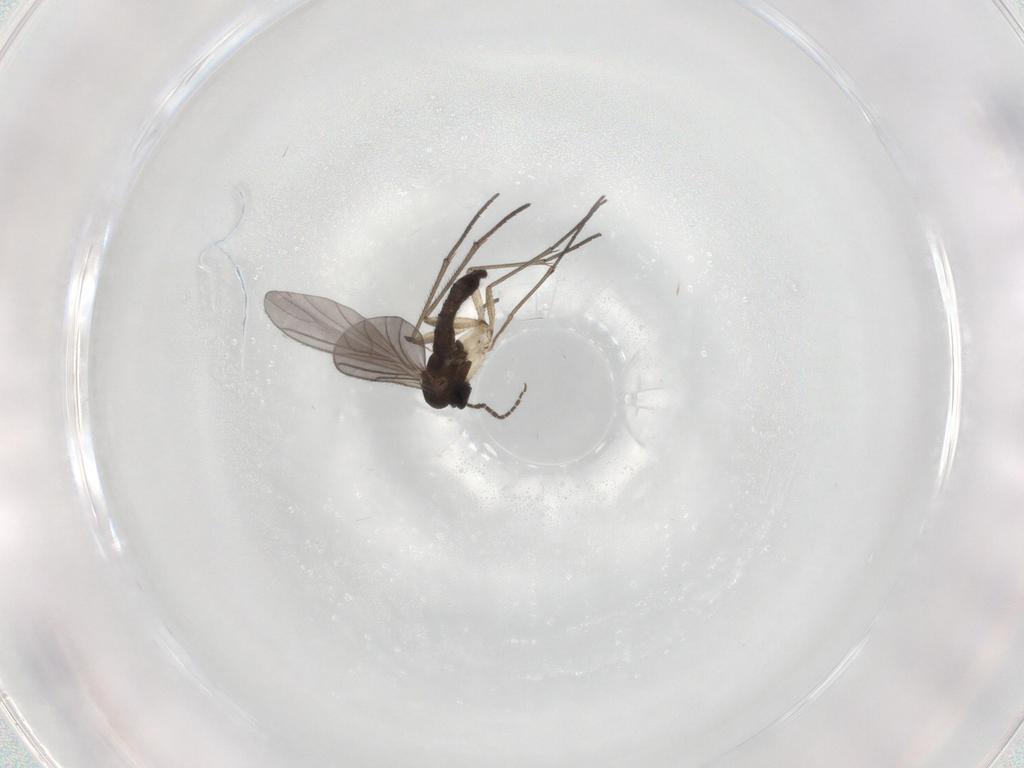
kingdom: Animalia
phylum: Arthropoda
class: Insecta
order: Diptera
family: Sciaridae
